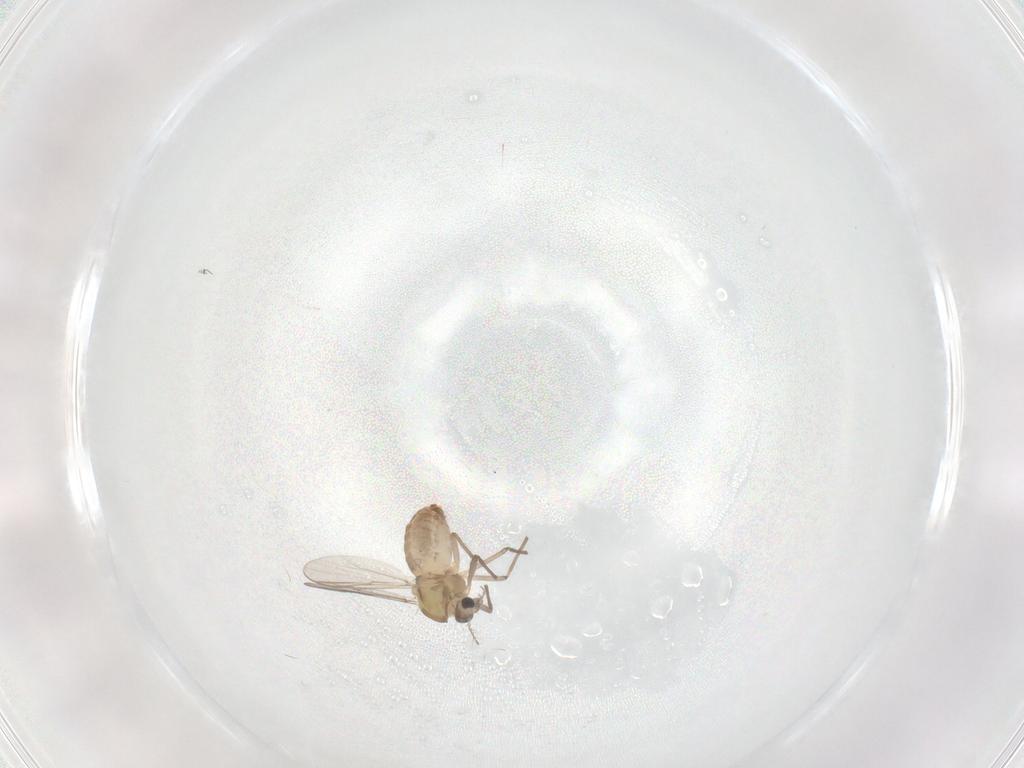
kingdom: Animalia
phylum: Arthropoda
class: Insecta
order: Diptera
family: Chironomidae
